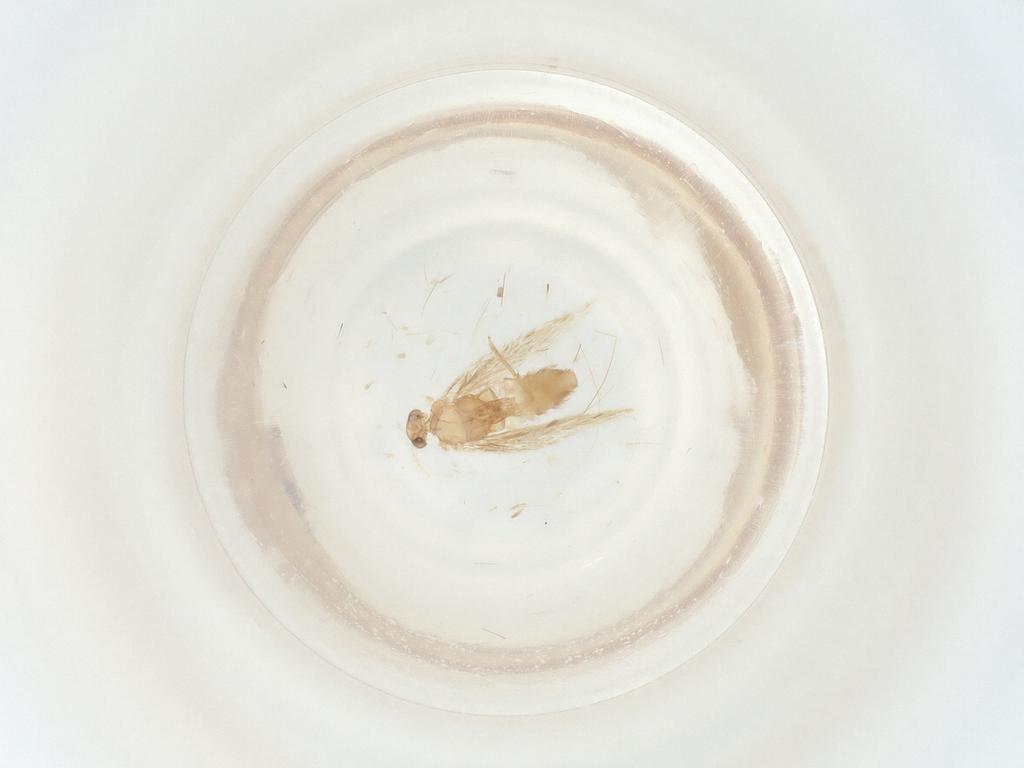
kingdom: Animalia
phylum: Arthropoda
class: Insecta
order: Lepidoptera
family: Nepticulidae
